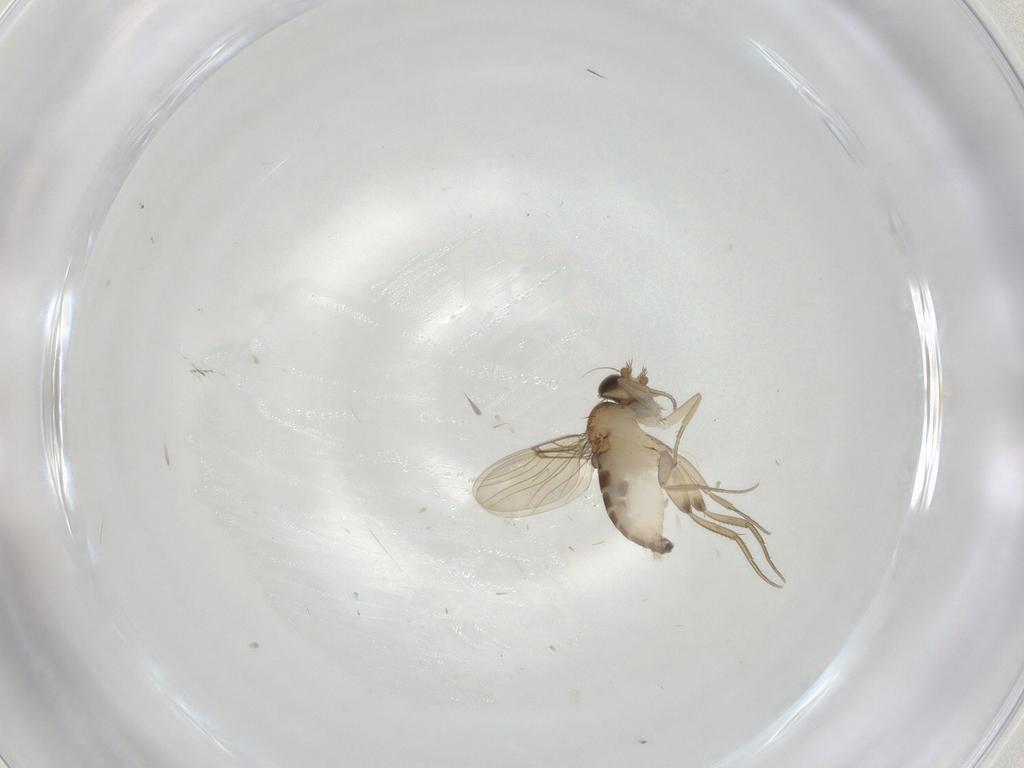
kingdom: Animalia
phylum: Arthropoda
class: Insecta
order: Diptera
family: Phoridae
